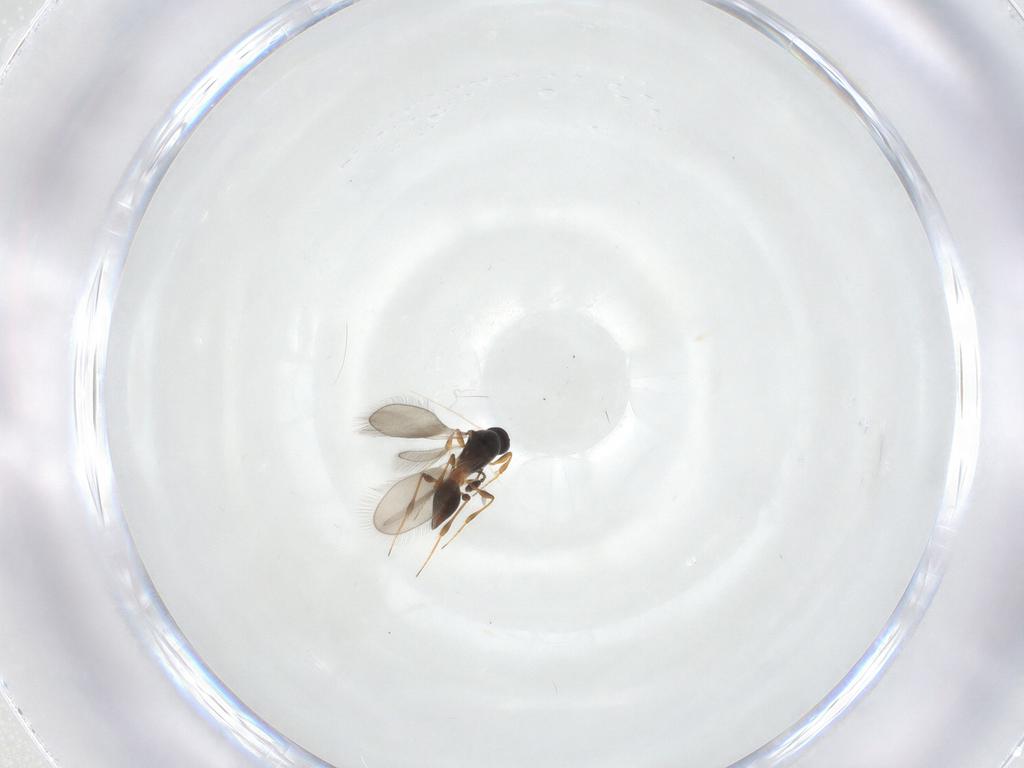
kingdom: Animalia
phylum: Arthropoda
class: Insecta
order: Hymenoptera
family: Platygastridae
